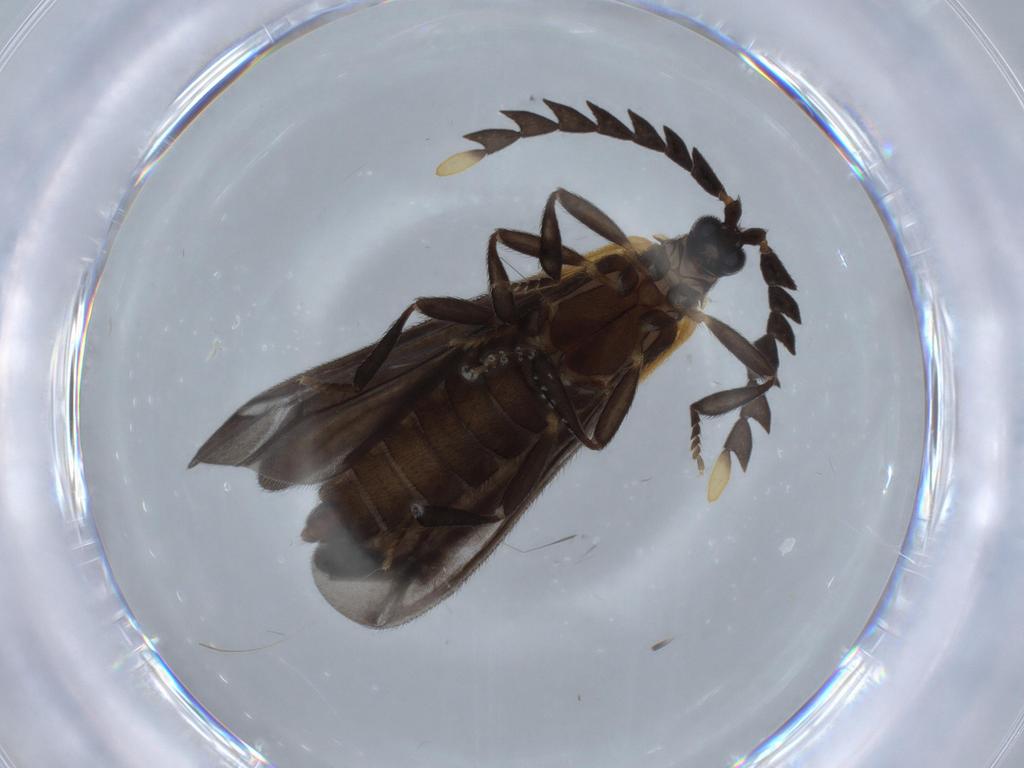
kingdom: Animalia
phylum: Arthropoda
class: Insecta
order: Coleoptera
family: Lycidae
